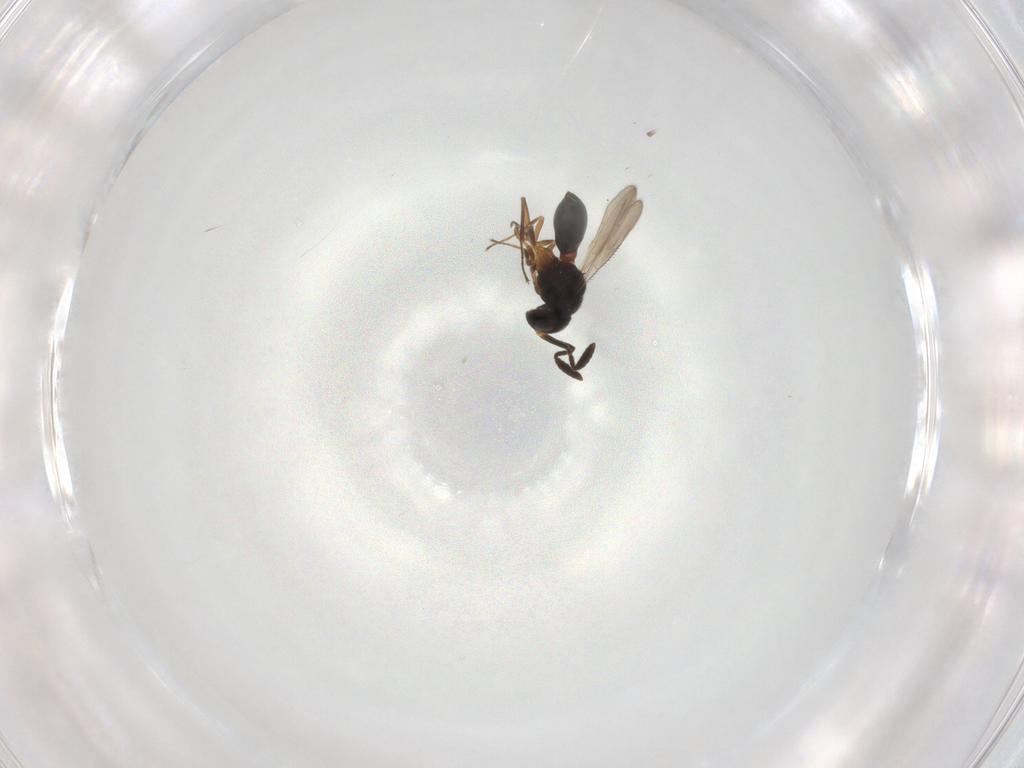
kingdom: Animalia
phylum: Arthropoda
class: Insecta
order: Hymenoptera
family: Scelionidae
